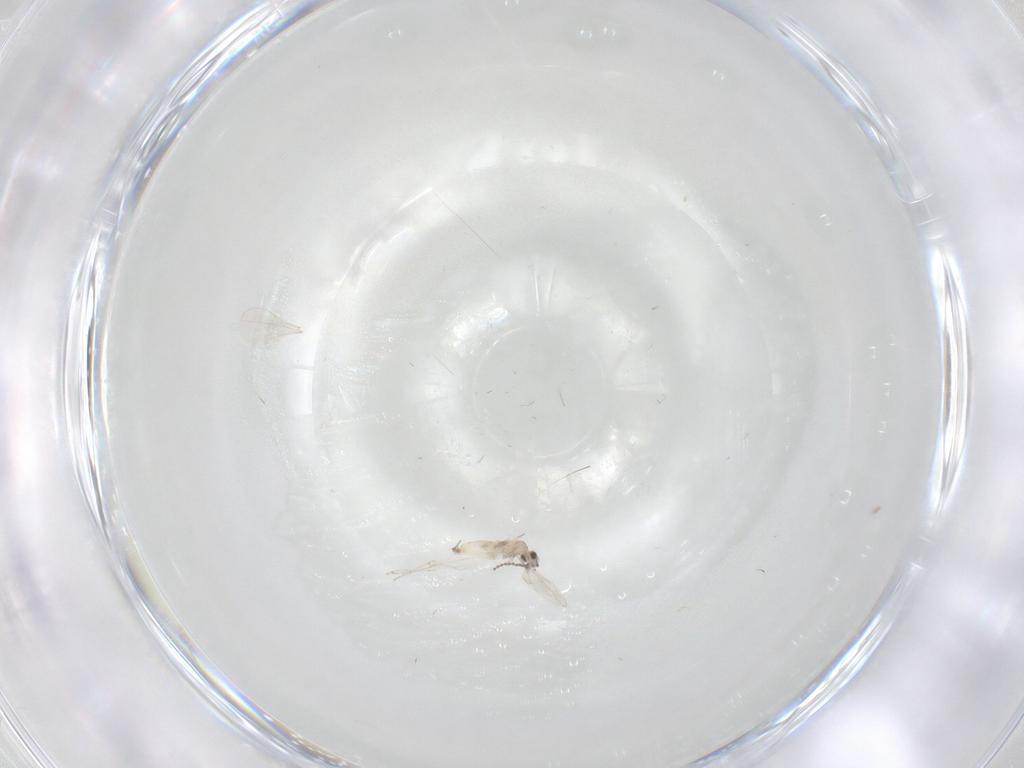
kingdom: Animalia
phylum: Arthropoda
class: Insecta
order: Diptera
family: Cecidomyiidae
